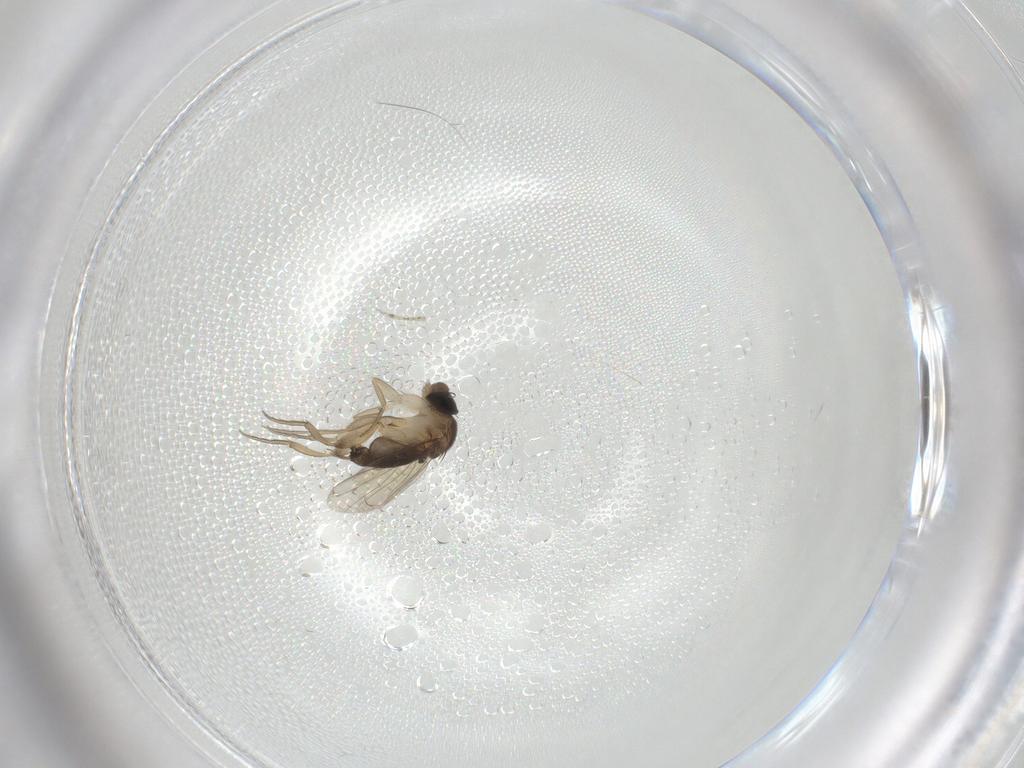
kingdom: Animalia
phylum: Arthropoda
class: Insecta
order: Diptera
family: Phoridae
